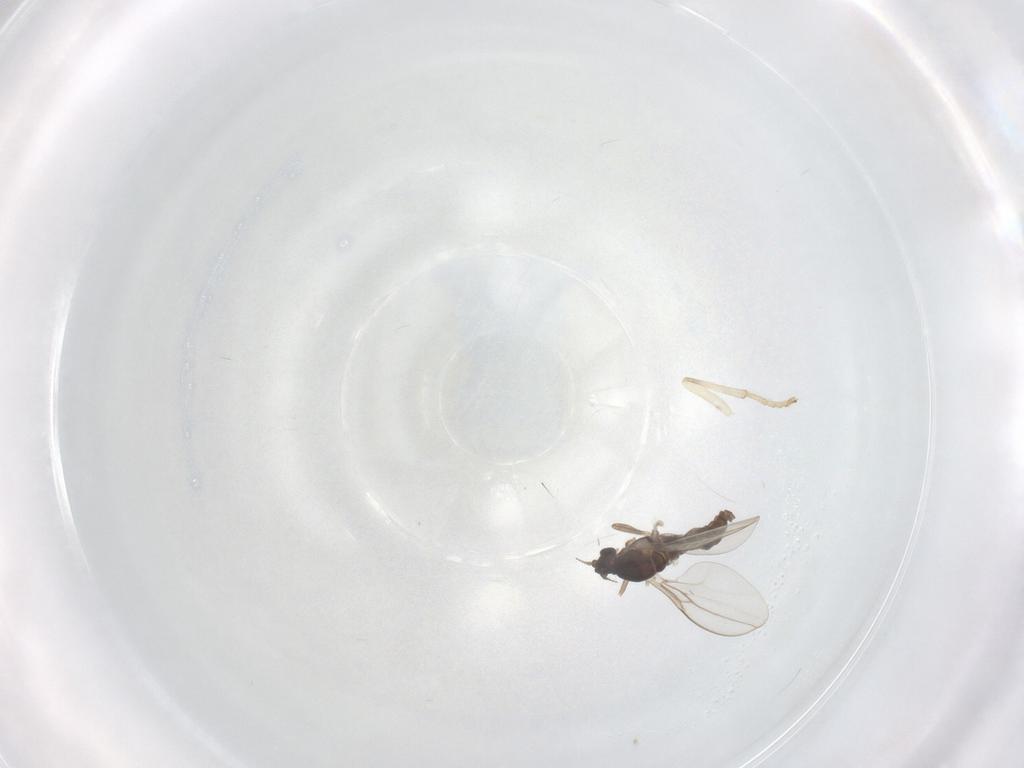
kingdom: Animalia
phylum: Arthropoda
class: Insecta
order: Diptera
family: Cecidomyiidae
